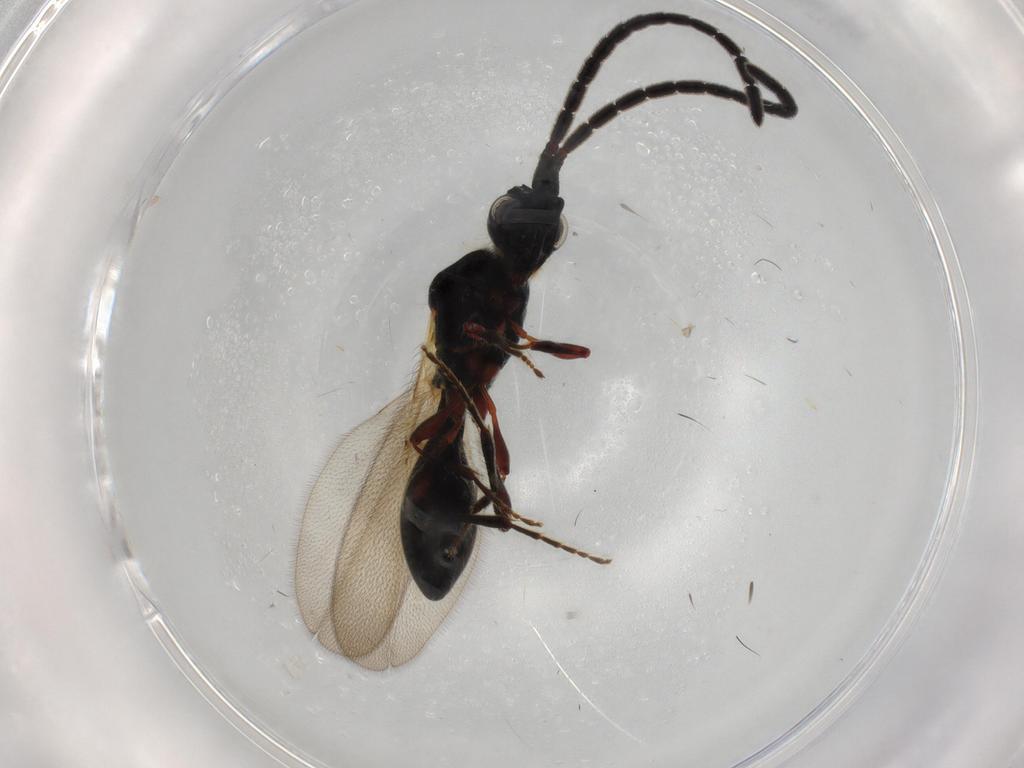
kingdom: Animalia
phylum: Arthropoda
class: Insecta
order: Hymenoptera
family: Diapriidae
